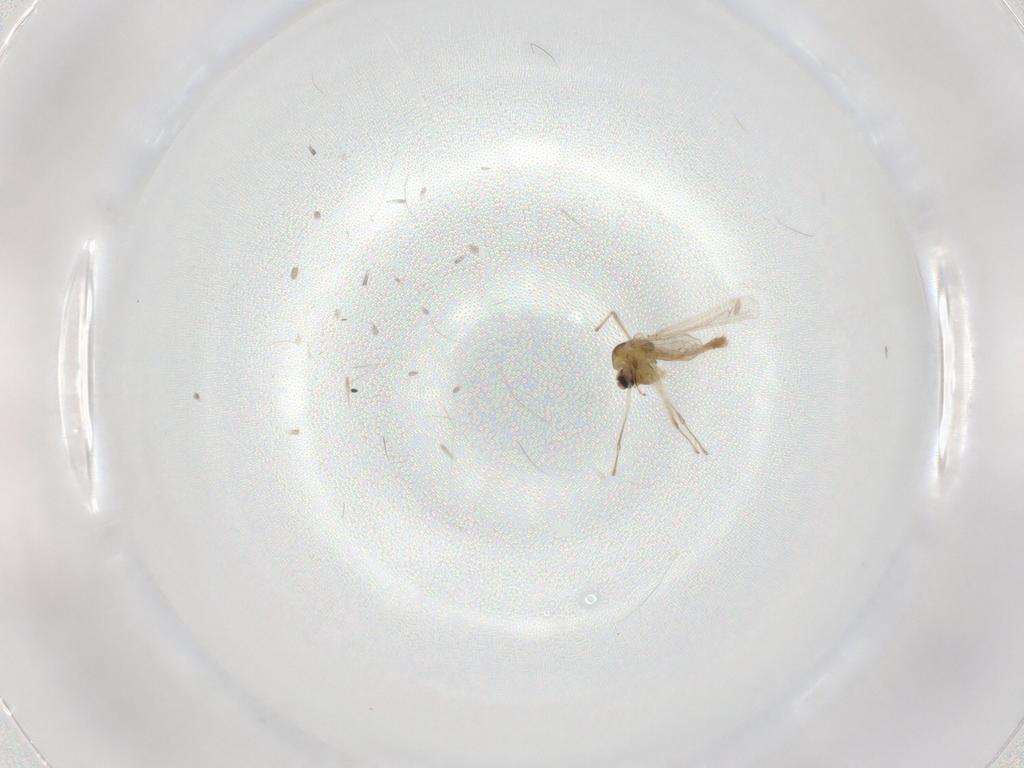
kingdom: Animalia
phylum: Arthropoda
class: Insecta
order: Diptera
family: Chironomidae
